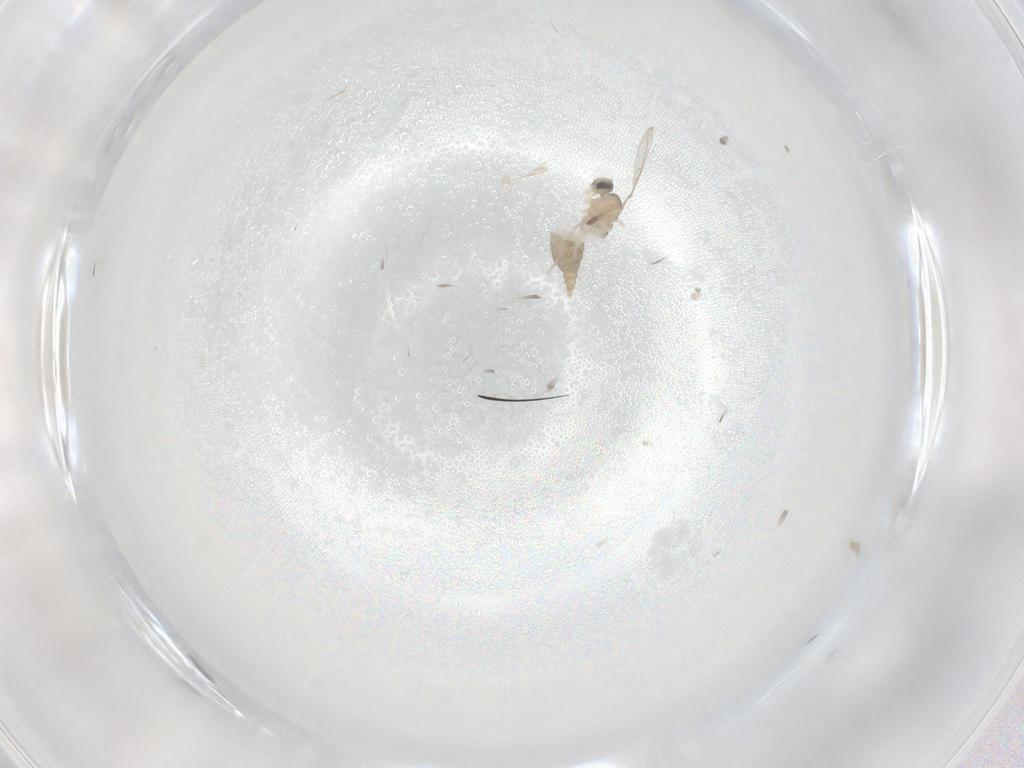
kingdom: Animalia
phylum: Arthropoda
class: Insecta
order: Diptera
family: Cecidomyiidae
